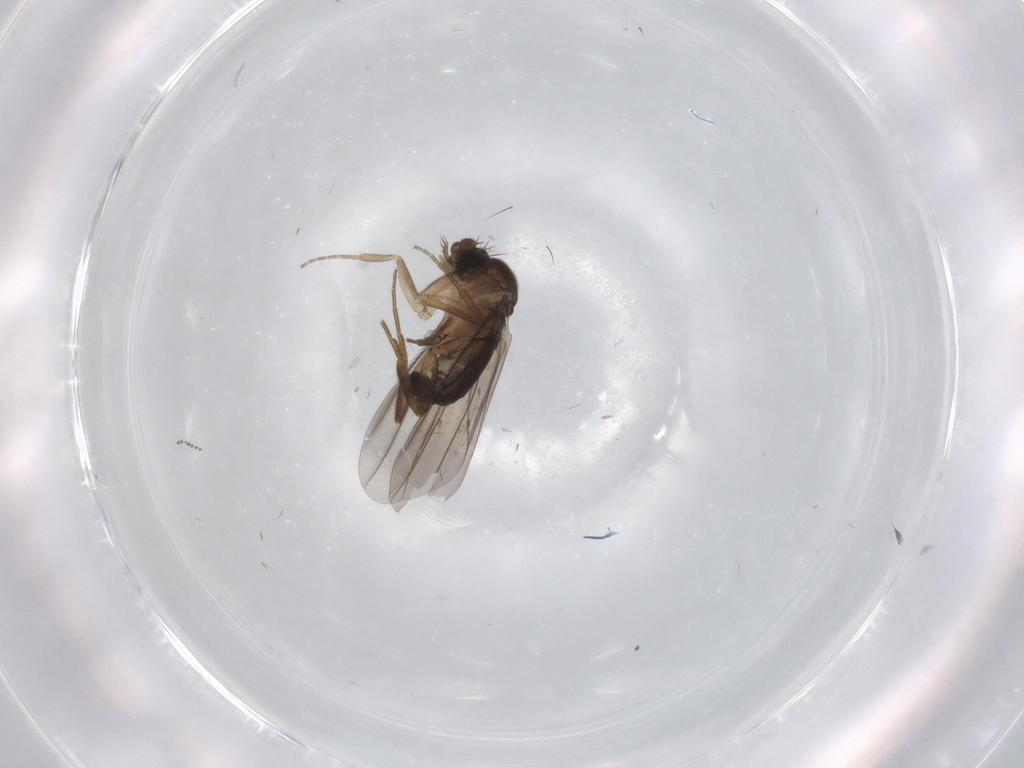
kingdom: Animalia
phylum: Arthropoda
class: Insecta
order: Diptera
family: Phoridae
